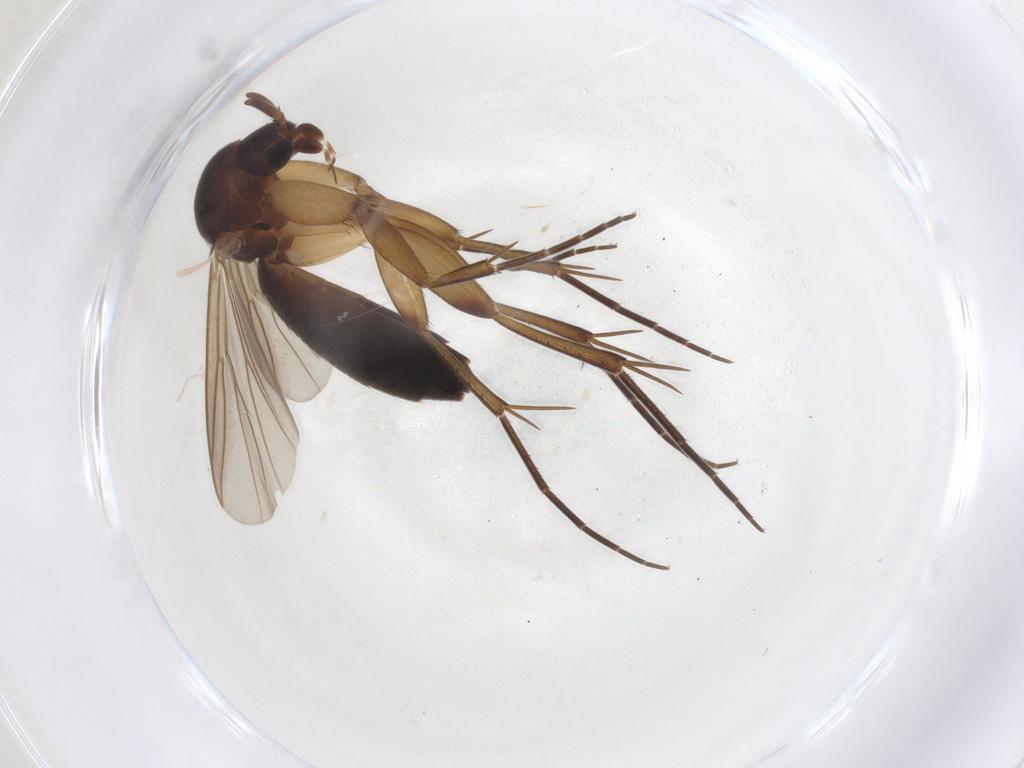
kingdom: Animalia
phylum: Arthropoda
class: Insecta
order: Diptera
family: Mycetophilidae
